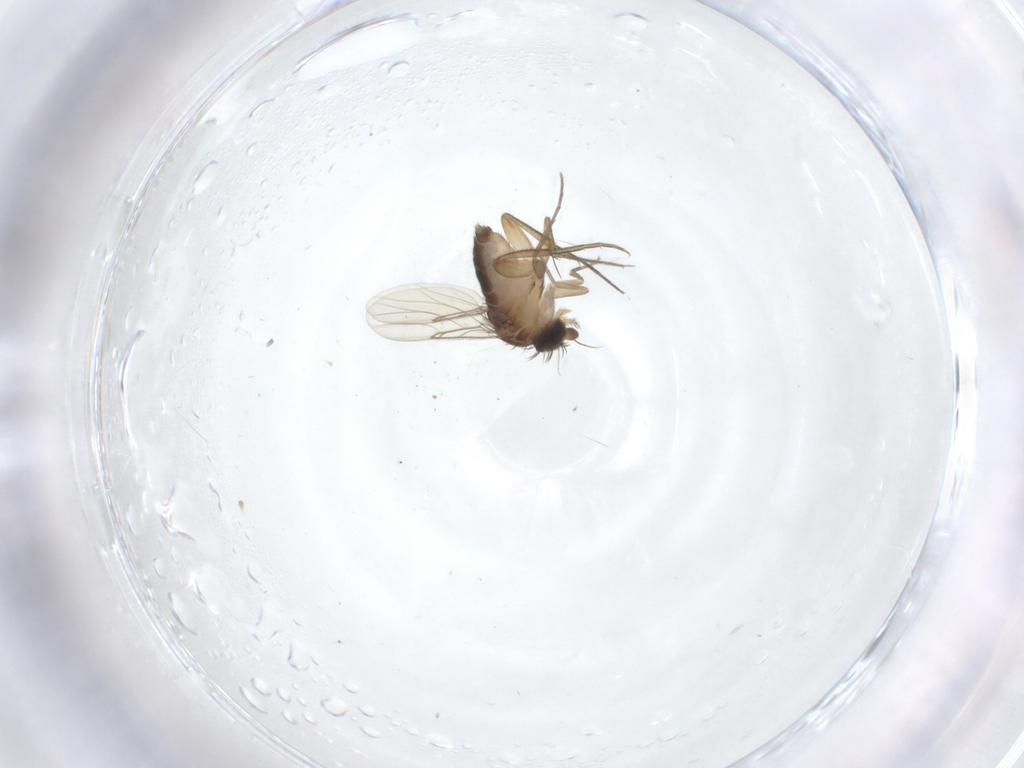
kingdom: Animalia
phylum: Arthropoda
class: Insecta
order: Diptera
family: Phoridae
